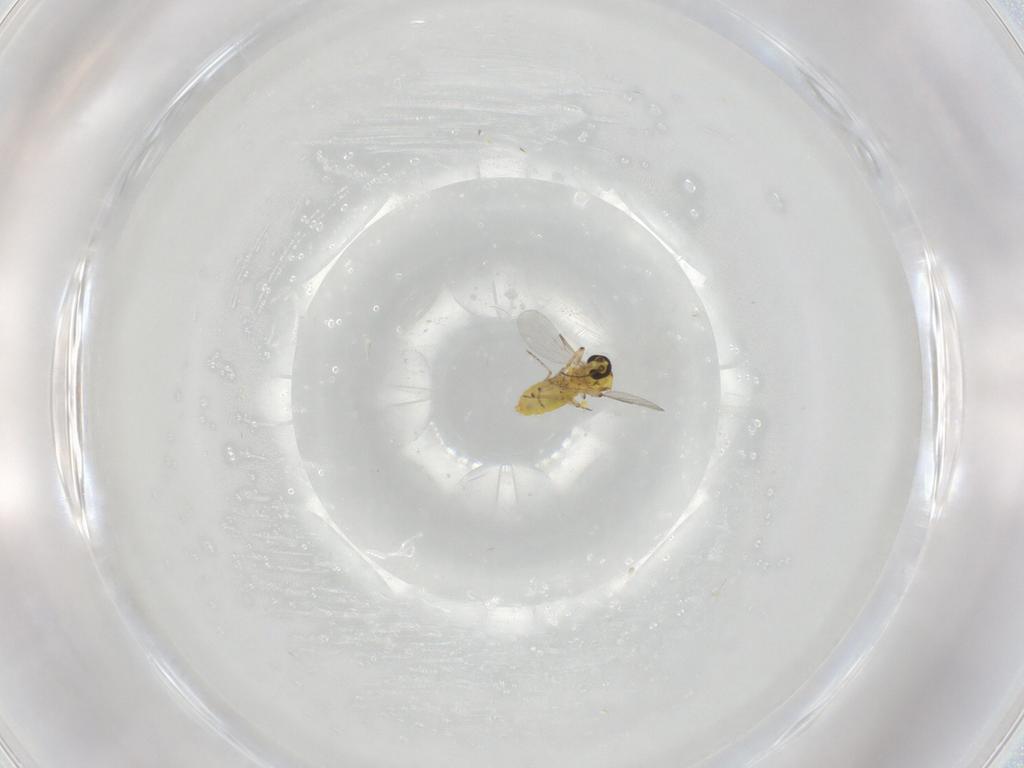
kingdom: Animalia
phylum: Arthropoda
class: Insecta
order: Diptera
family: Ceratopogonidae
